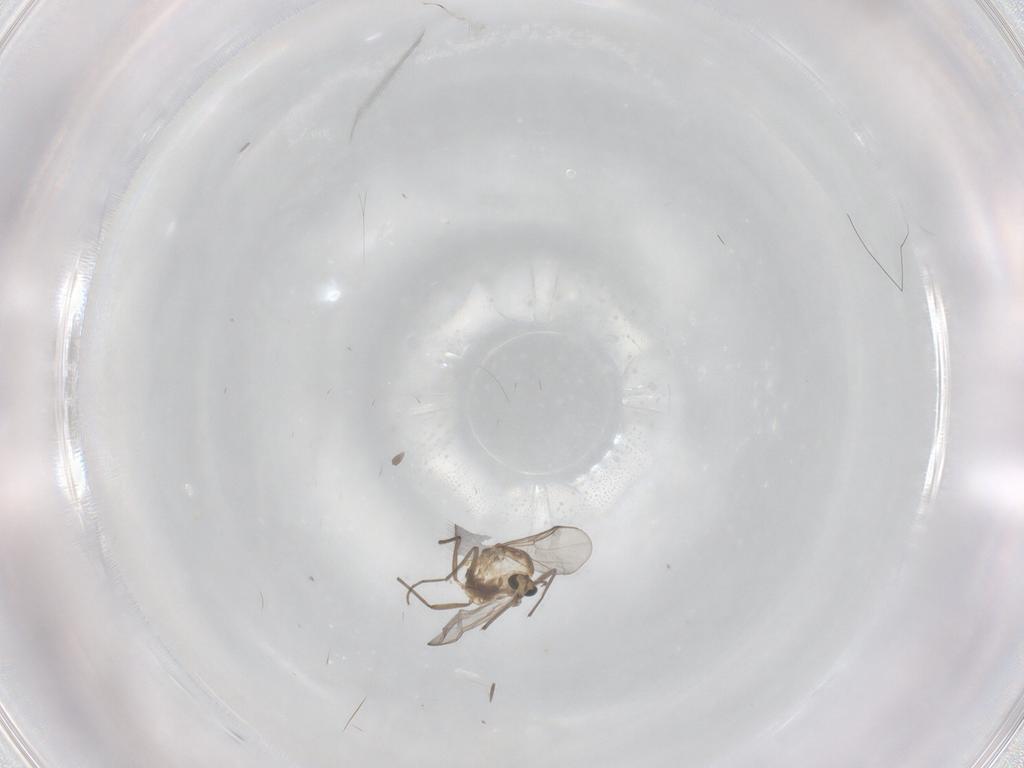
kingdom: Animalia
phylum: Arthropoda
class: Insecta
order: Diptera
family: Chironomidae
